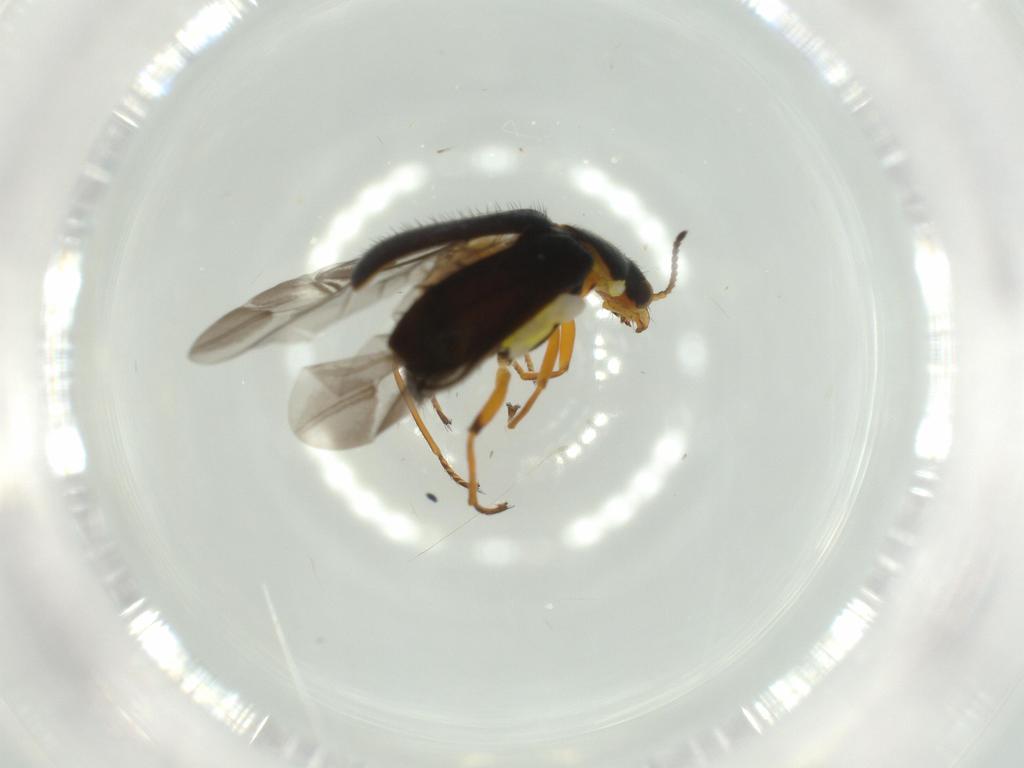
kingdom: Animalia
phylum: Arthropoda
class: Insecta
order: Coleoptera
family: Melyridae
